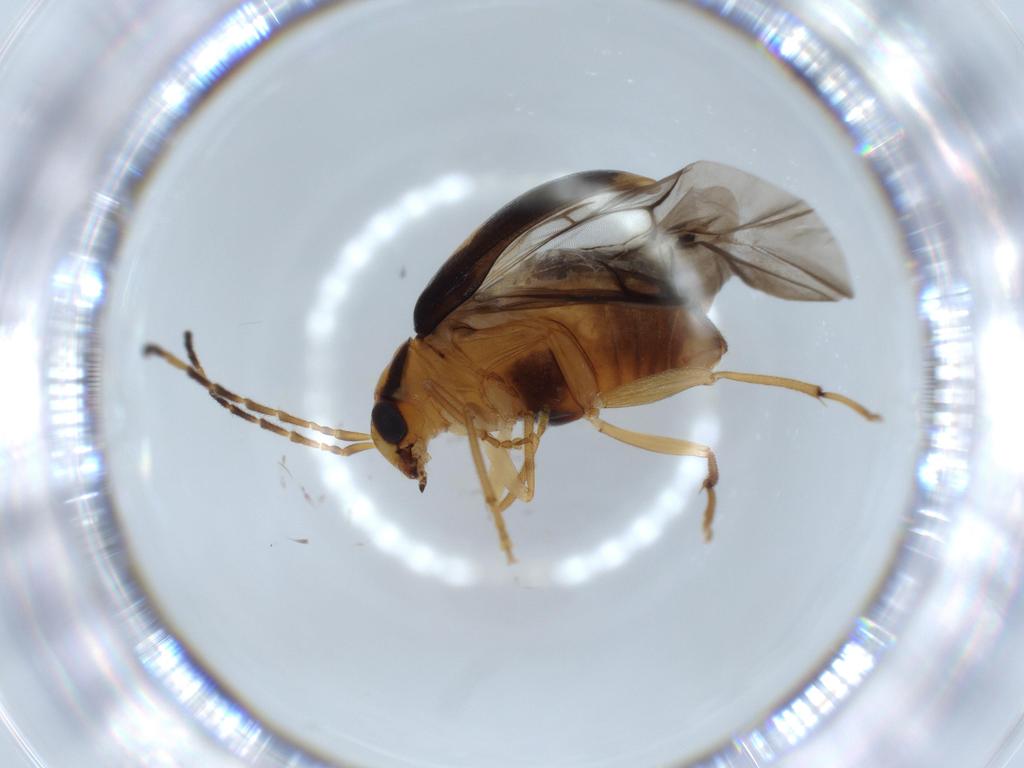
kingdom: Animalia
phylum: Arthropoda
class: Insecta
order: Coleoptera
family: Chrysomelidae
